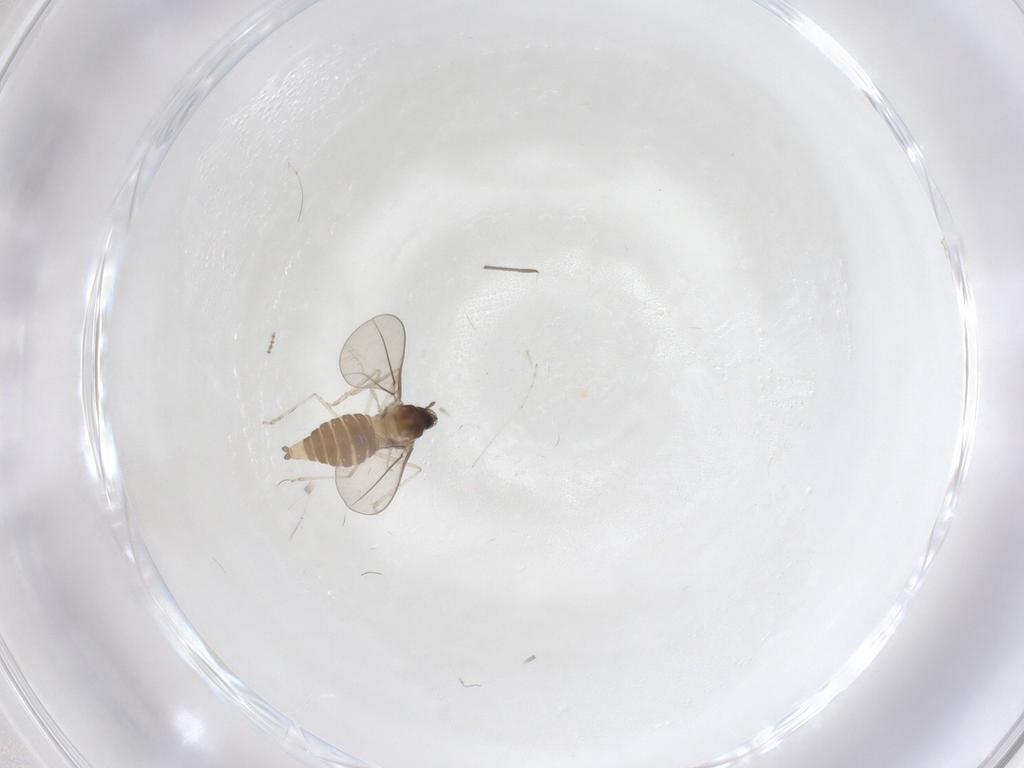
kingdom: Animalia
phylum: Arthropoda
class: Insecta
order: Diptera
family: Cecidomyiidae
